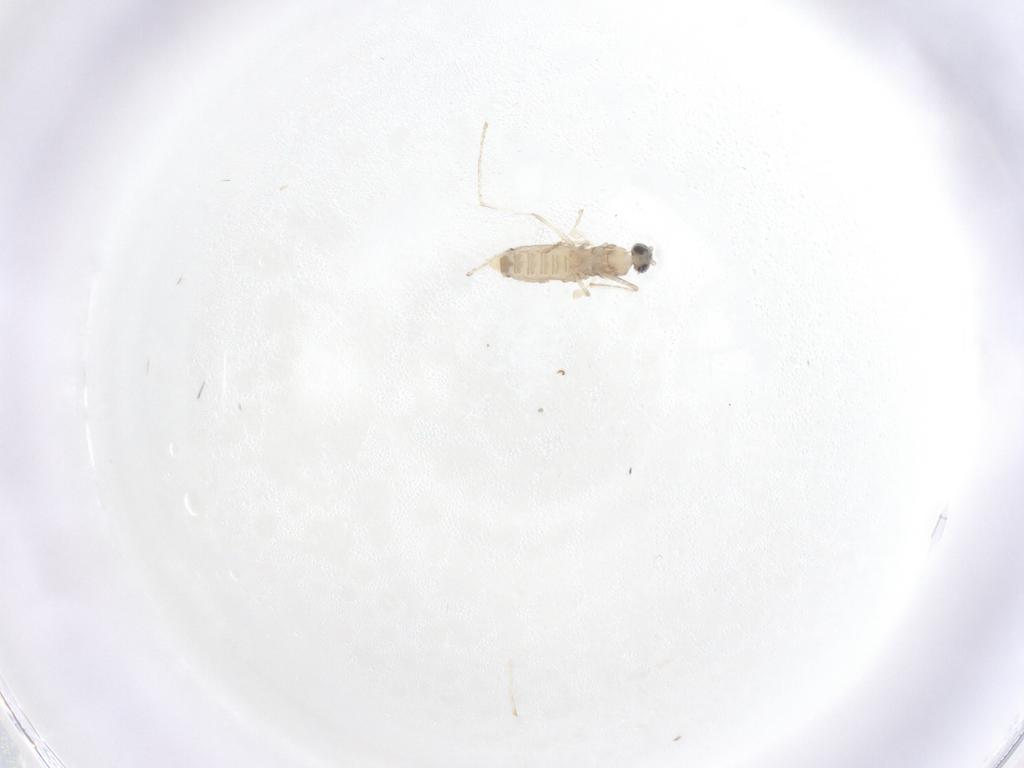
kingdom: Animalia
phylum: Arthropoda
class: Insecta
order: Diptera
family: Cecidomyiidae
